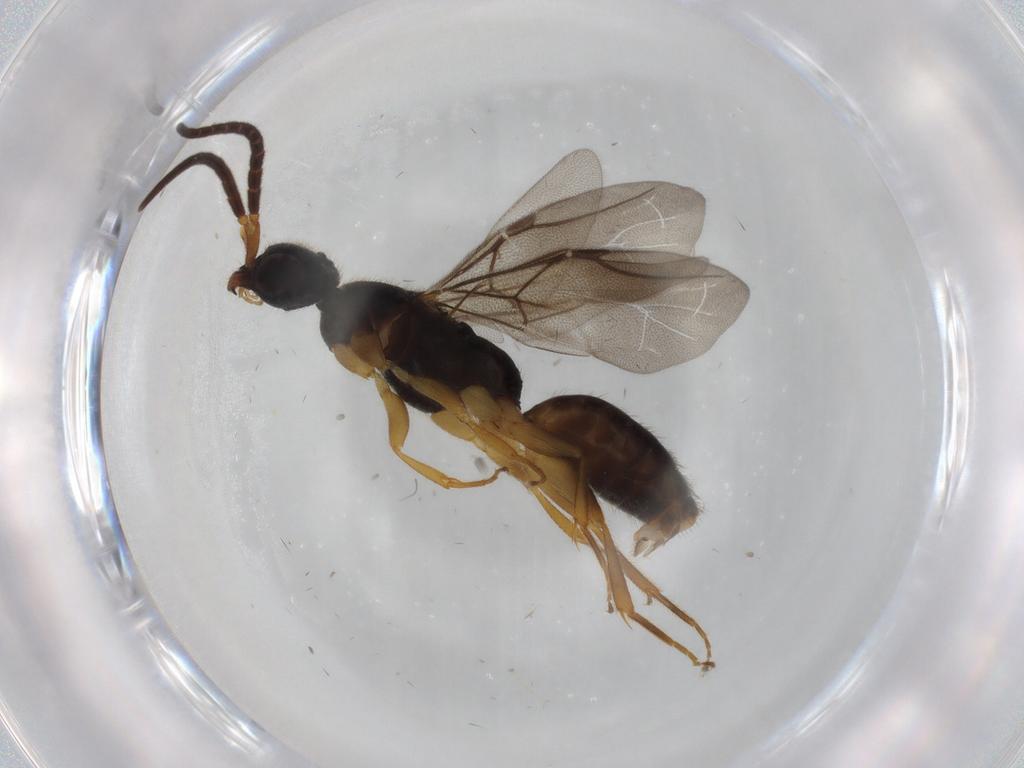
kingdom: Animalia
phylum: Arthropoda
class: Insecta
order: Hymenoptera
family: Bethylidae
